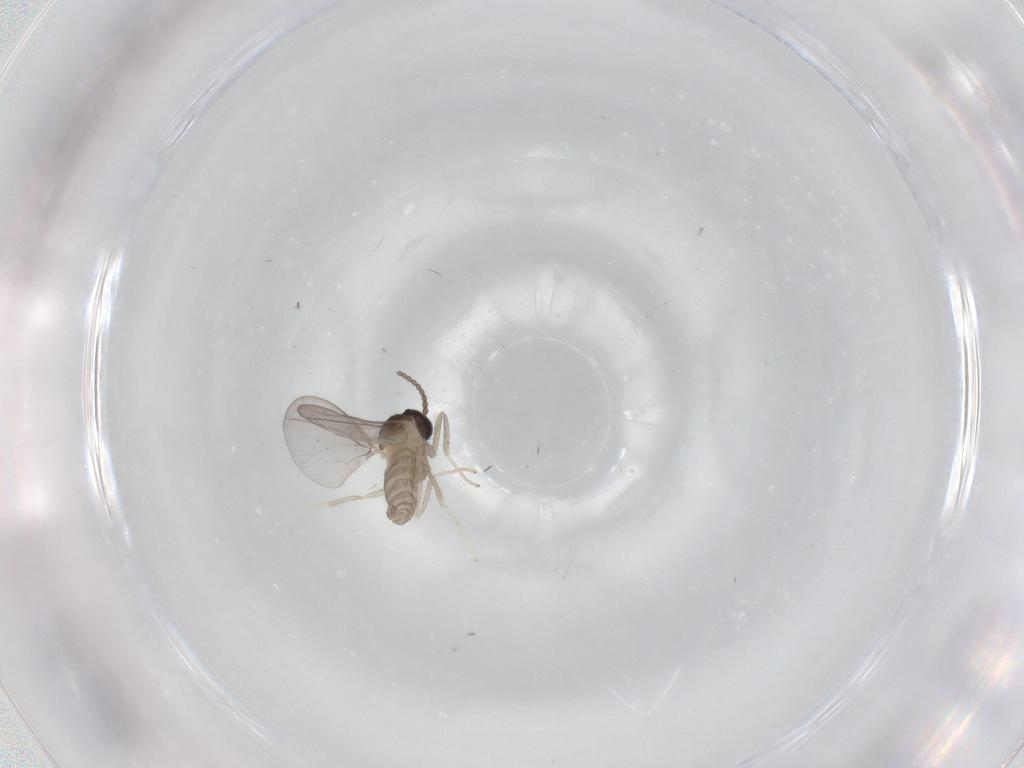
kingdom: Animalia
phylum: Arthropoda
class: Insecta
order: Diptera
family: Cecidomyiidae
